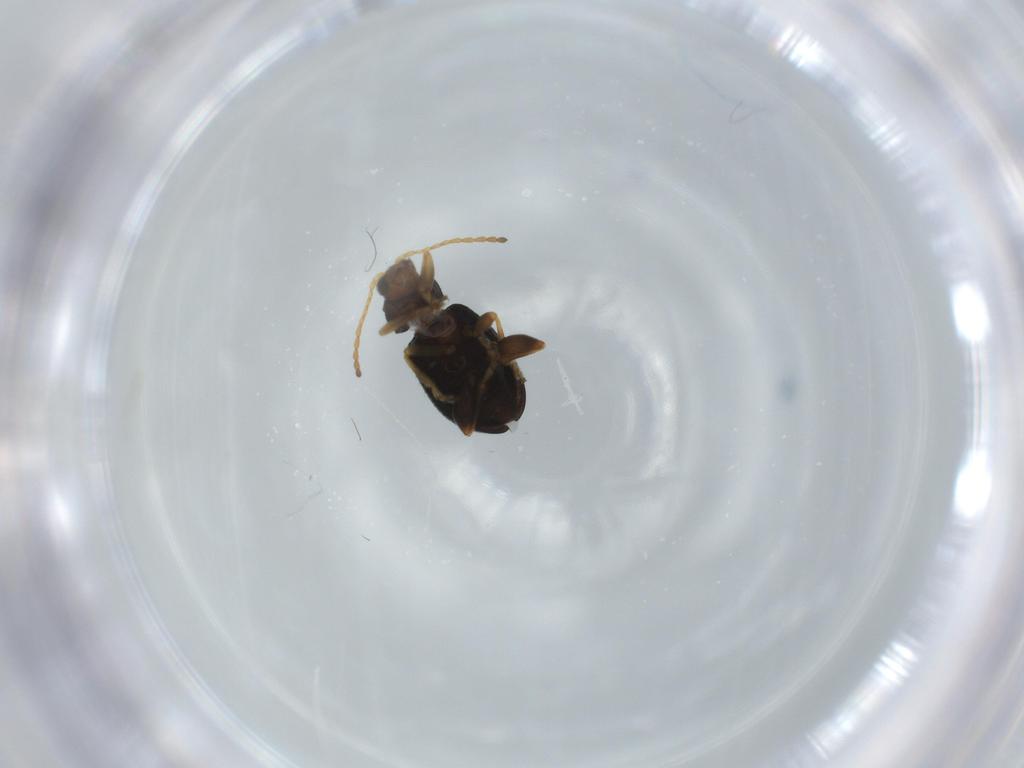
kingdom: Animalia
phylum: Arthropoda
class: Insecta
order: Coleoptera
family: Chrysomelidae
